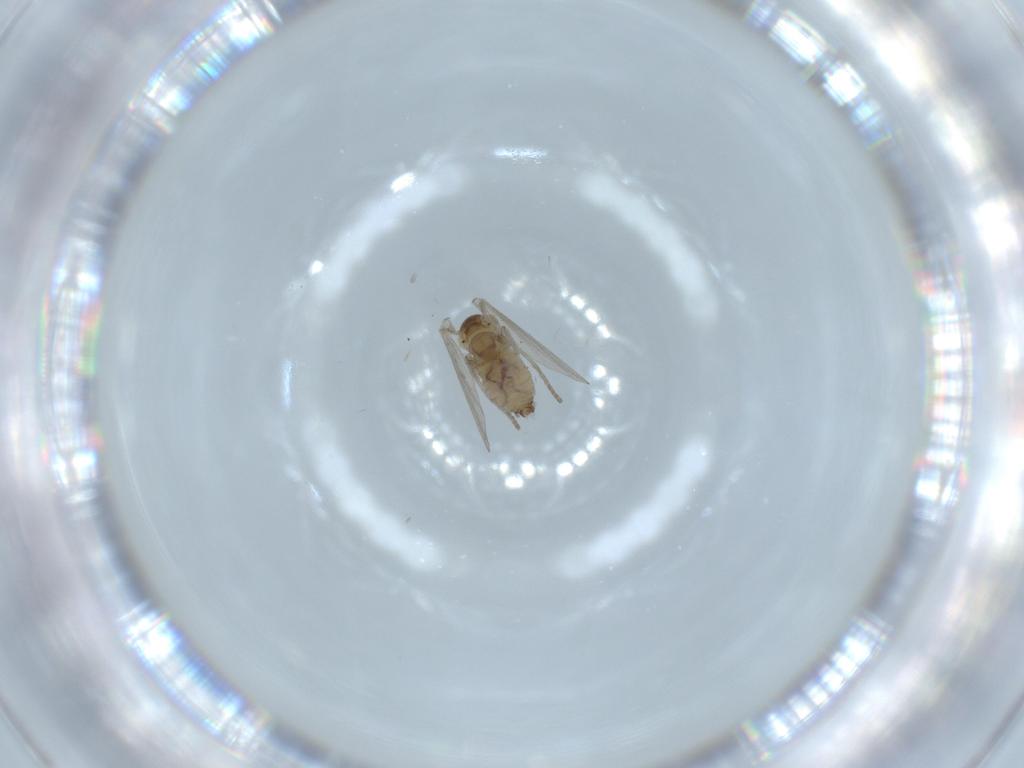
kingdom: Animalia
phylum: Arthropoda
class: Insecta
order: Diptera
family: Psychodidae
